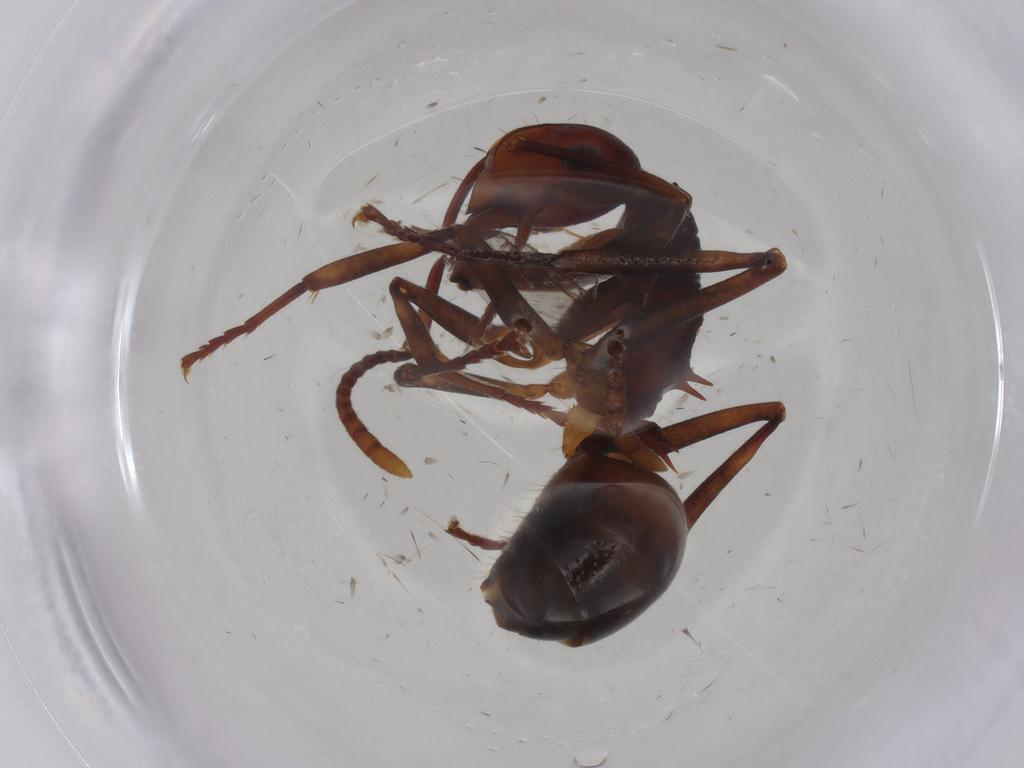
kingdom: Animalia
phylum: Arthropoda
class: Insecta
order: Hymenoptera
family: Formicidae
